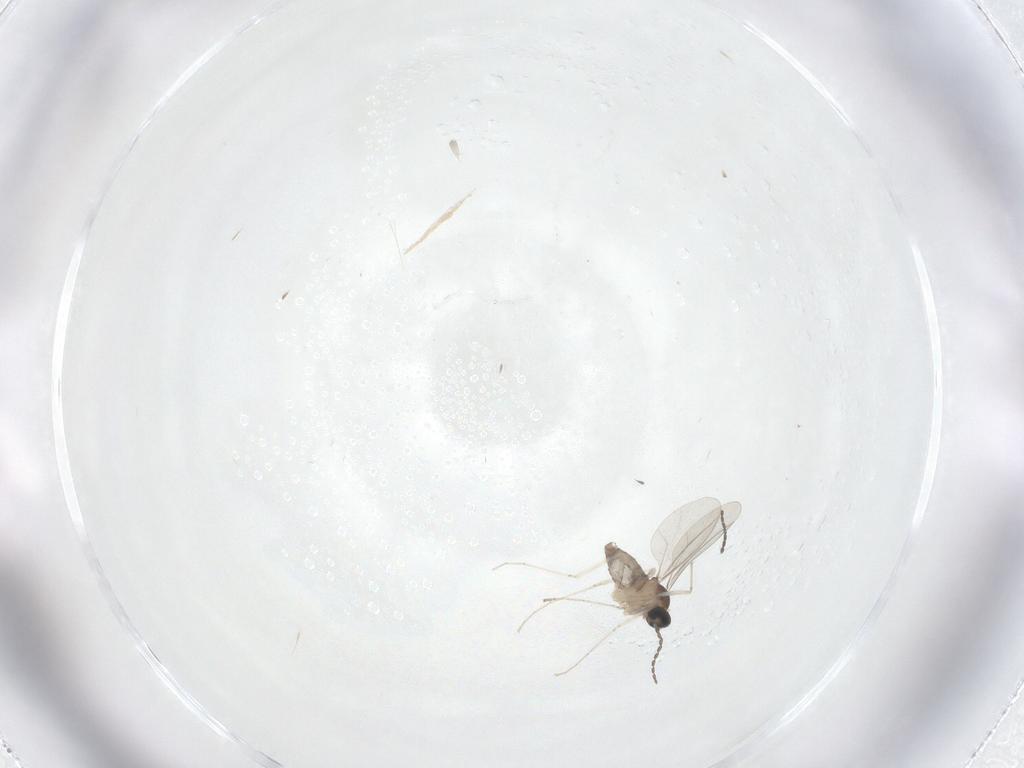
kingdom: Animalia
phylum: Arthropoda
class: Insecta
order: Diptera
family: Cecidomyiidae
